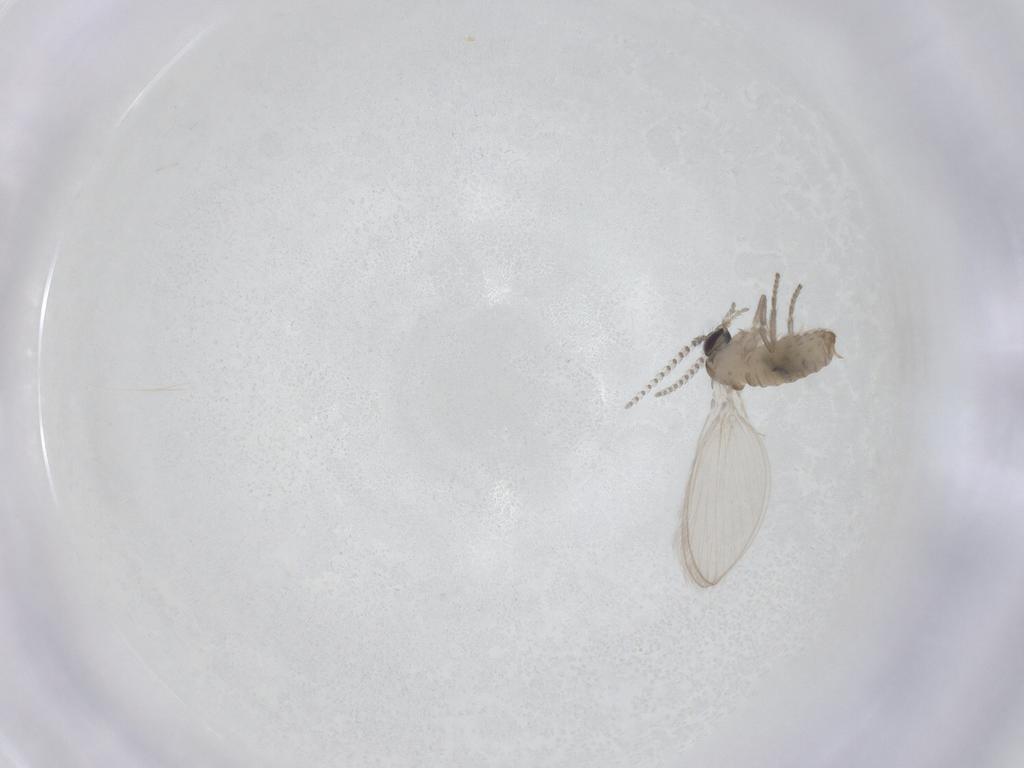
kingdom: Animalia
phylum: Arthropoda
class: Insecta
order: Diptera
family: Psychodidae
